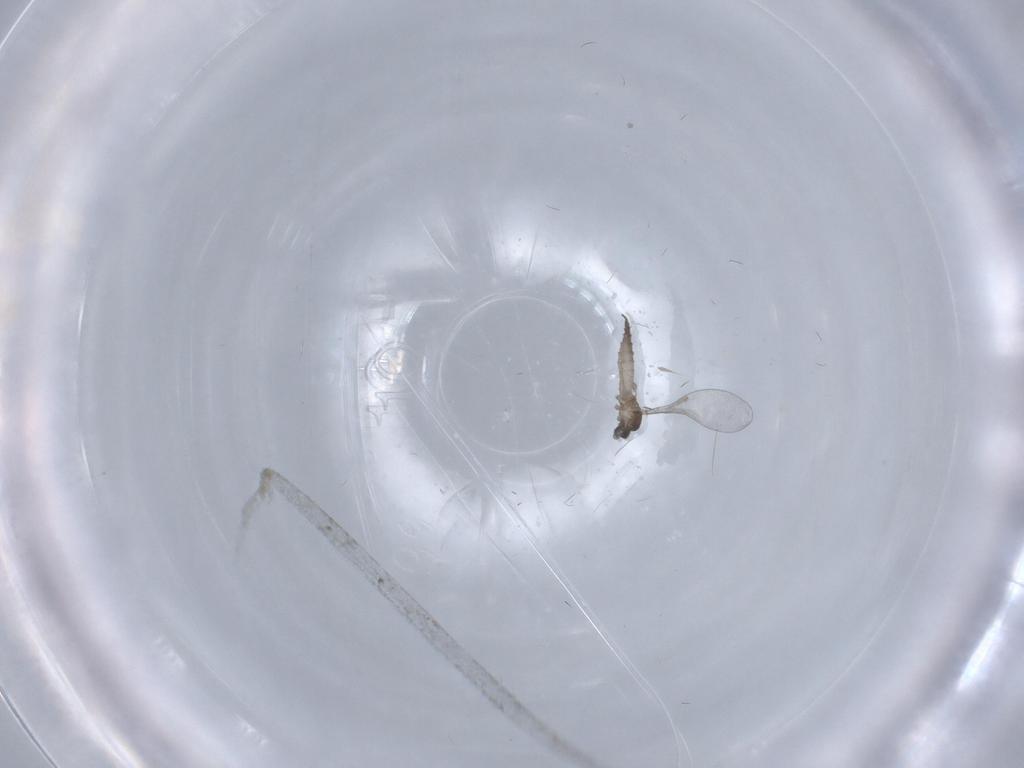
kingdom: Animalia
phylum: Arthropoda
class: Insecta
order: Diptera
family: Cecidomyiidae
